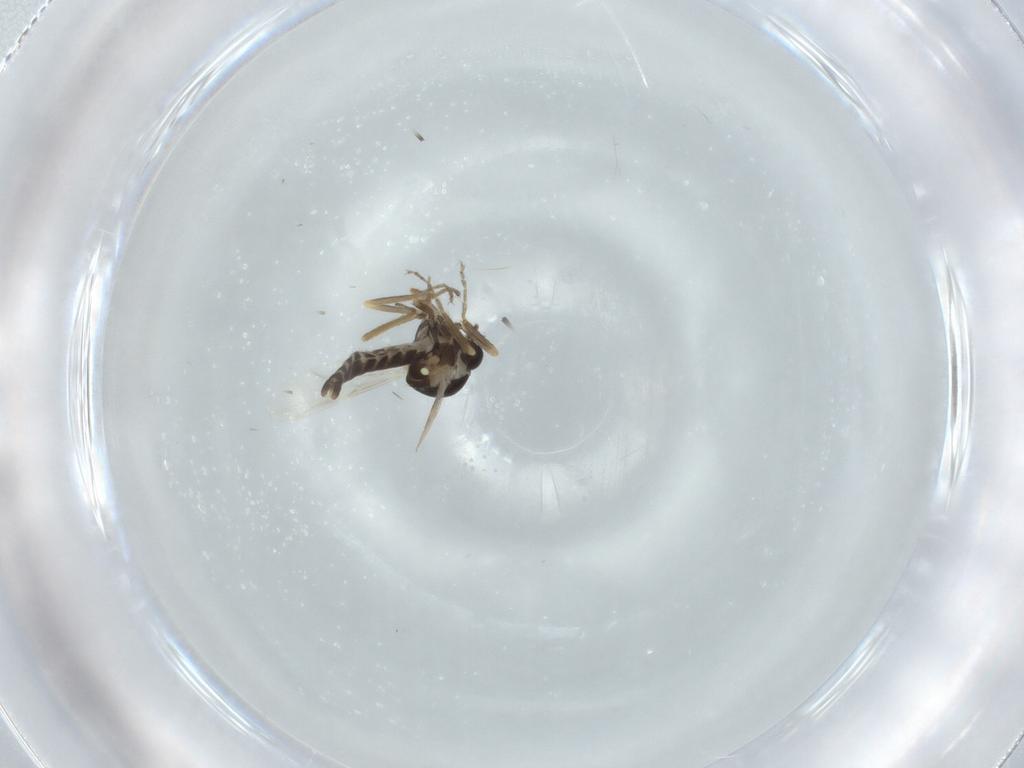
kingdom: Animalia
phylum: Arthropoda
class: Insecta
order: Diptera
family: Ceratopogonidae
